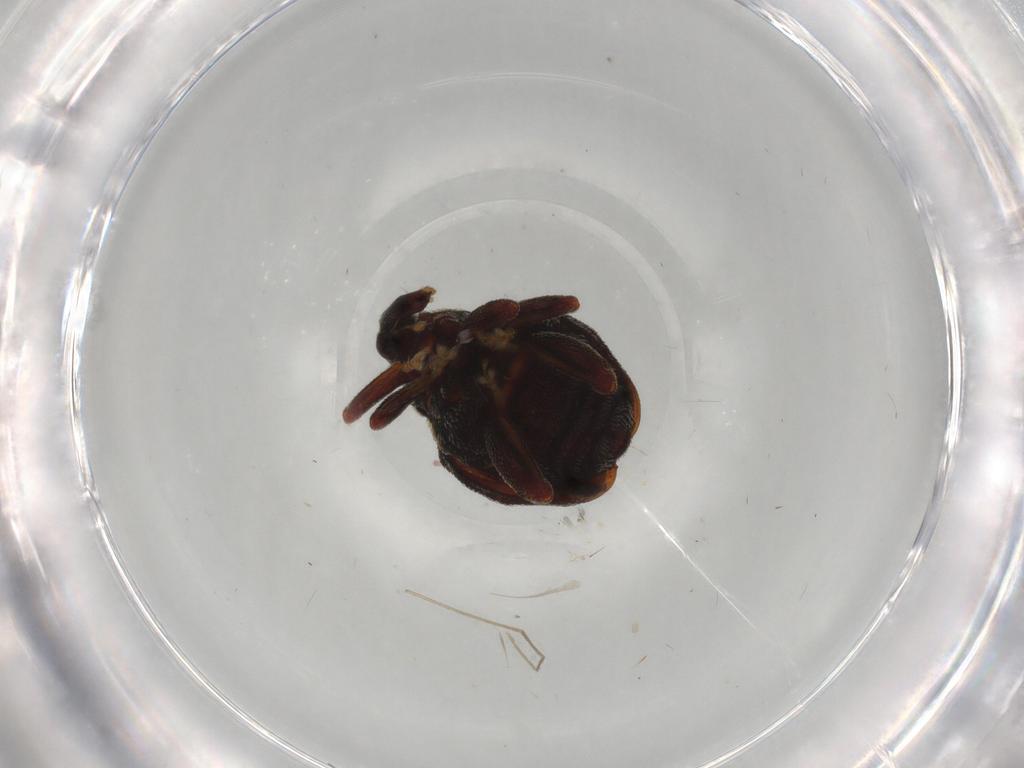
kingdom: Animalia
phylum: Arthropoda
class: Insecta
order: Coleoptera
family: Curculionidae
